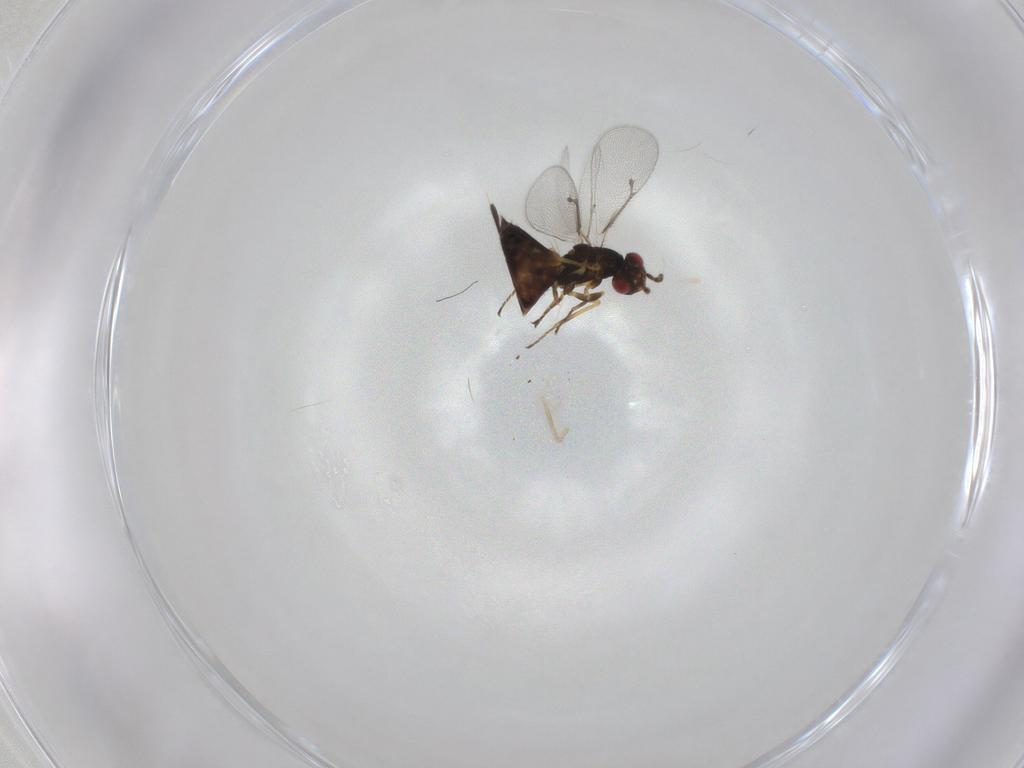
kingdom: Animalia
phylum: Arthropoda
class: Insecta
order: Hymenoptera
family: Eulophidae
